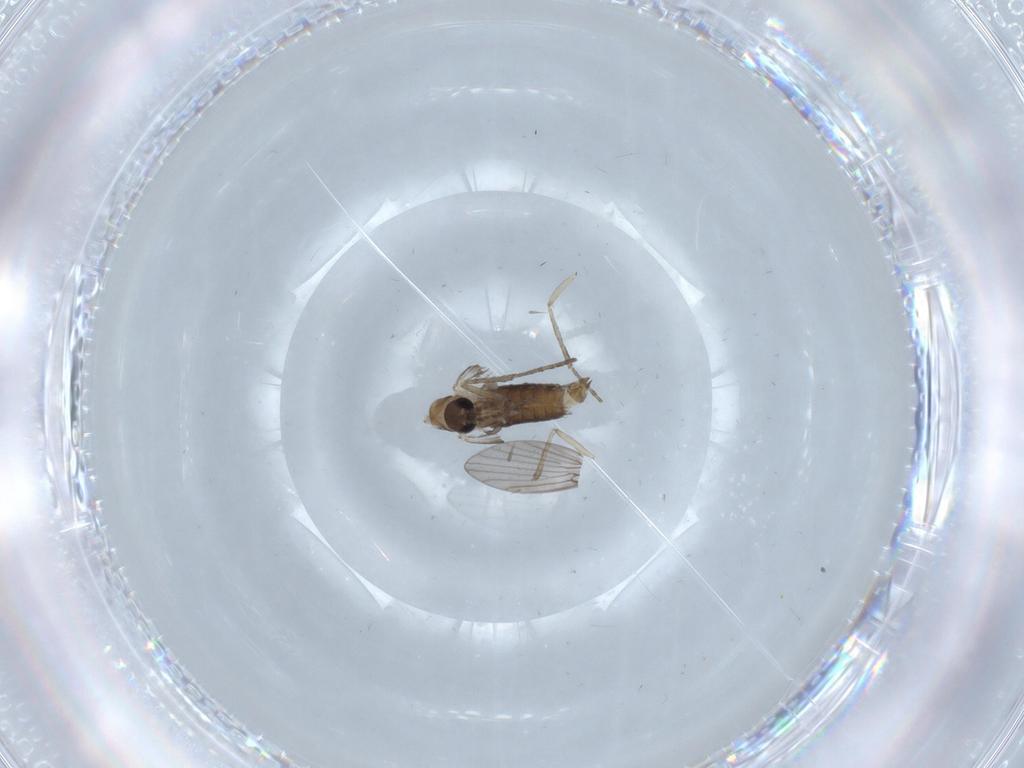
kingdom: Animalia
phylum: Arthropoda
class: Insecta
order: Diptera
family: Psychodidae
